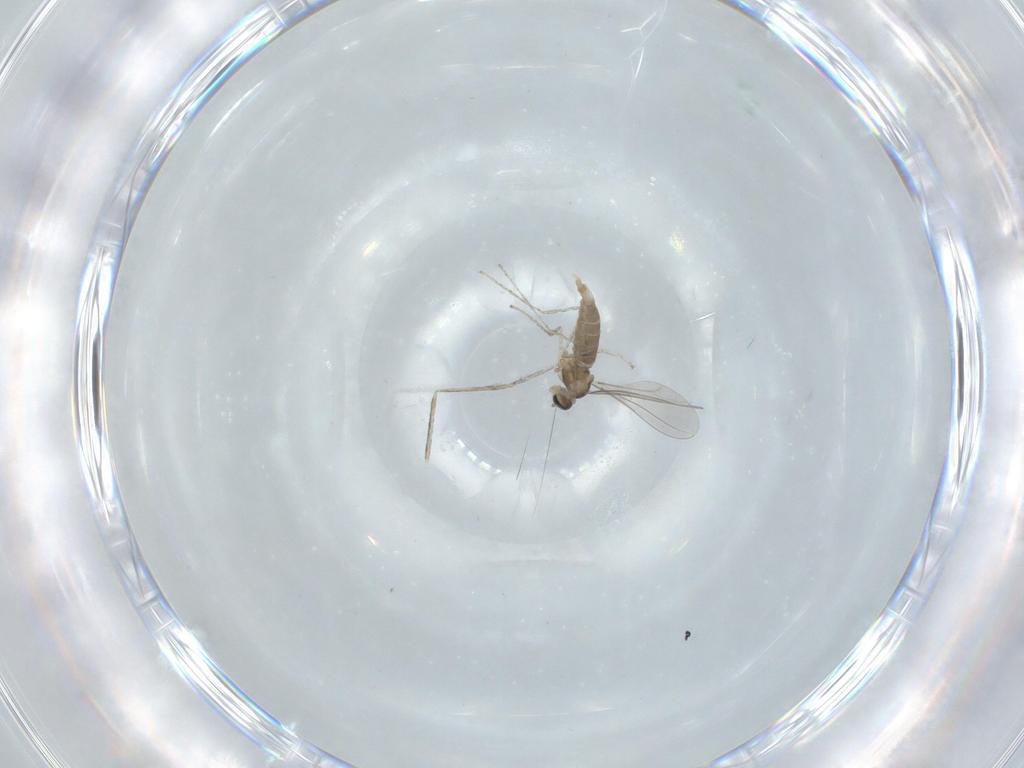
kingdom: Animalia
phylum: Arthropoda
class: Insecta
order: Diptera
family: Cecidomyiidae
